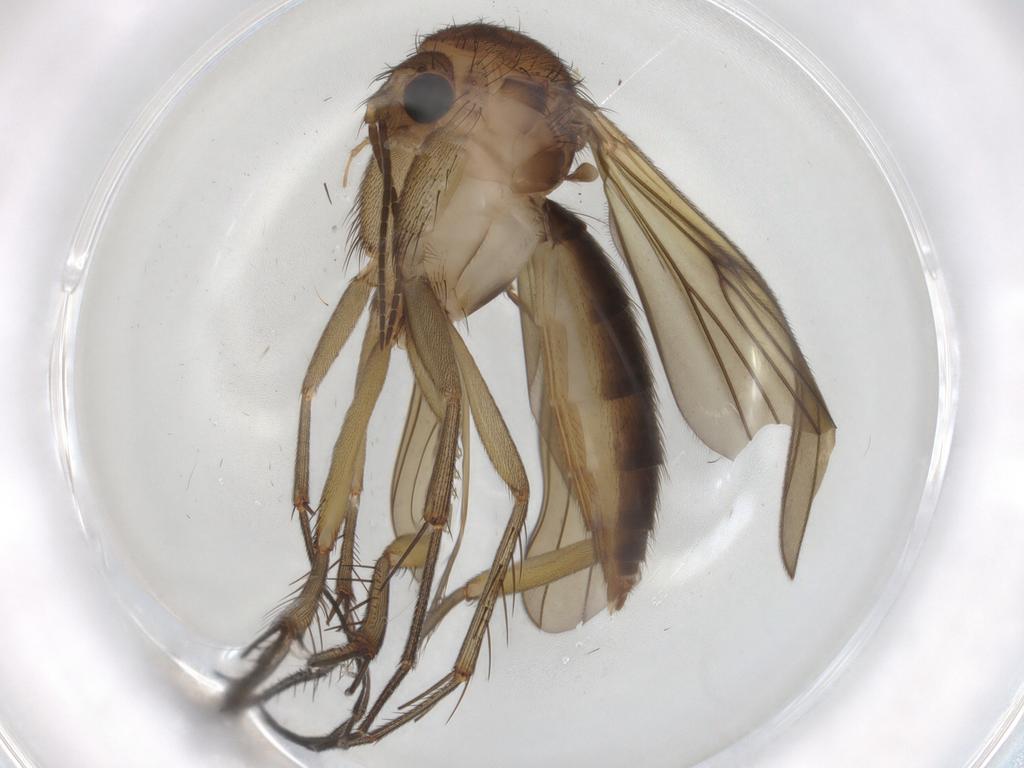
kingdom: Animalia
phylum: Arthropoda
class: Insecta
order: Diptera
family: Mycetophilidae
